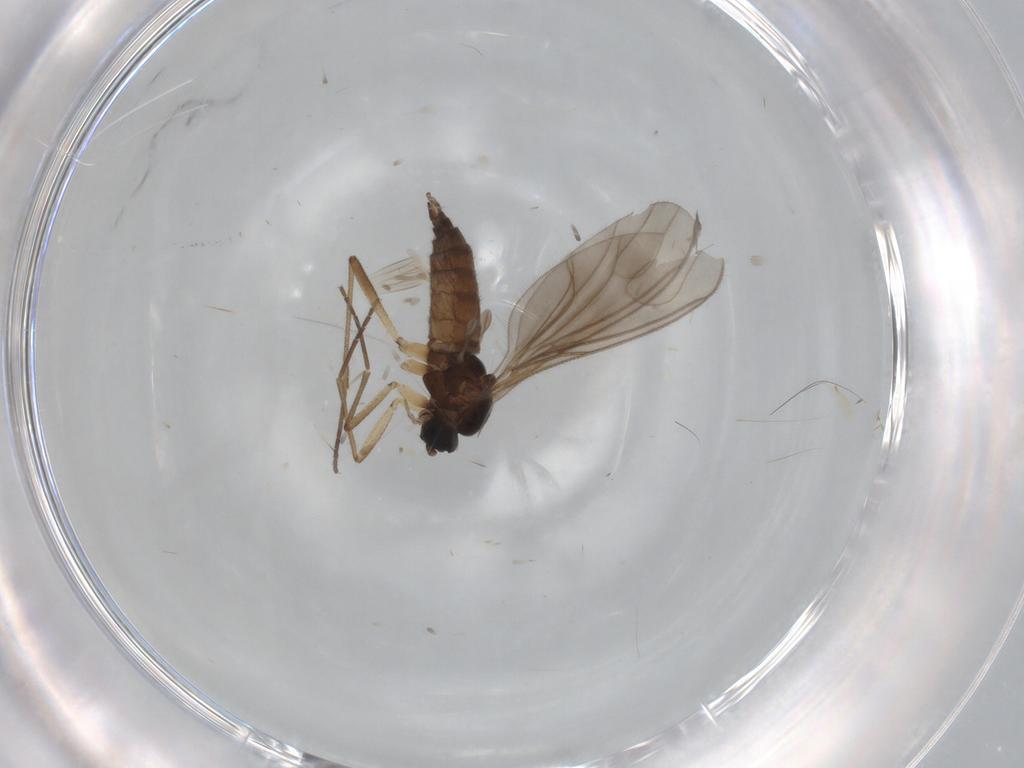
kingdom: Animalia
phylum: Arthropoda
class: Insecta
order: Diptera
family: Sciaridae
